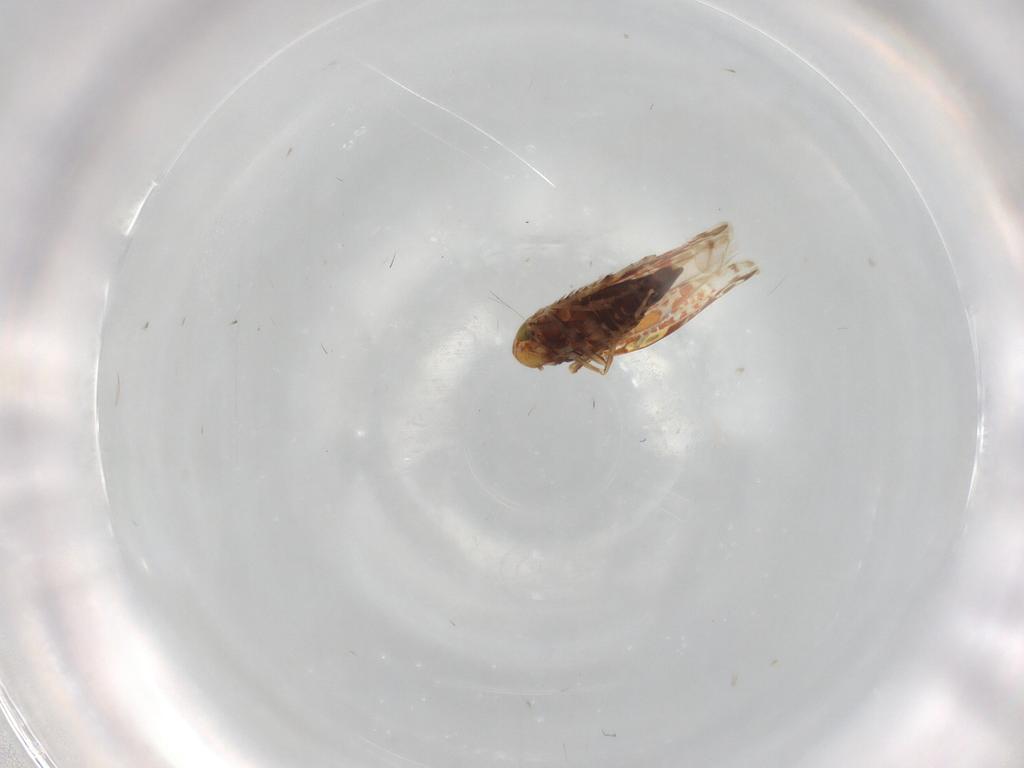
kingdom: Animalia
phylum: Arthropoda
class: Insecta
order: Hemiptera
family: Cicadellidae
